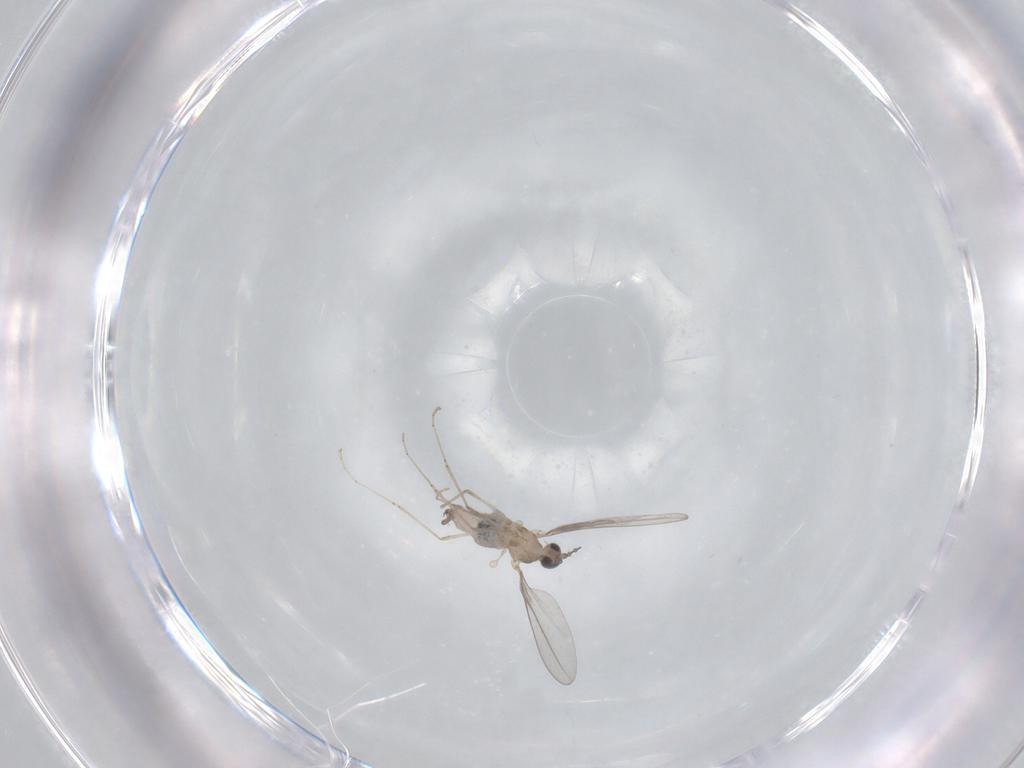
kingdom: Animalia
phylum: Arthropoda
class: Insecta
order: Diptera
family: Cecidomyiidae
